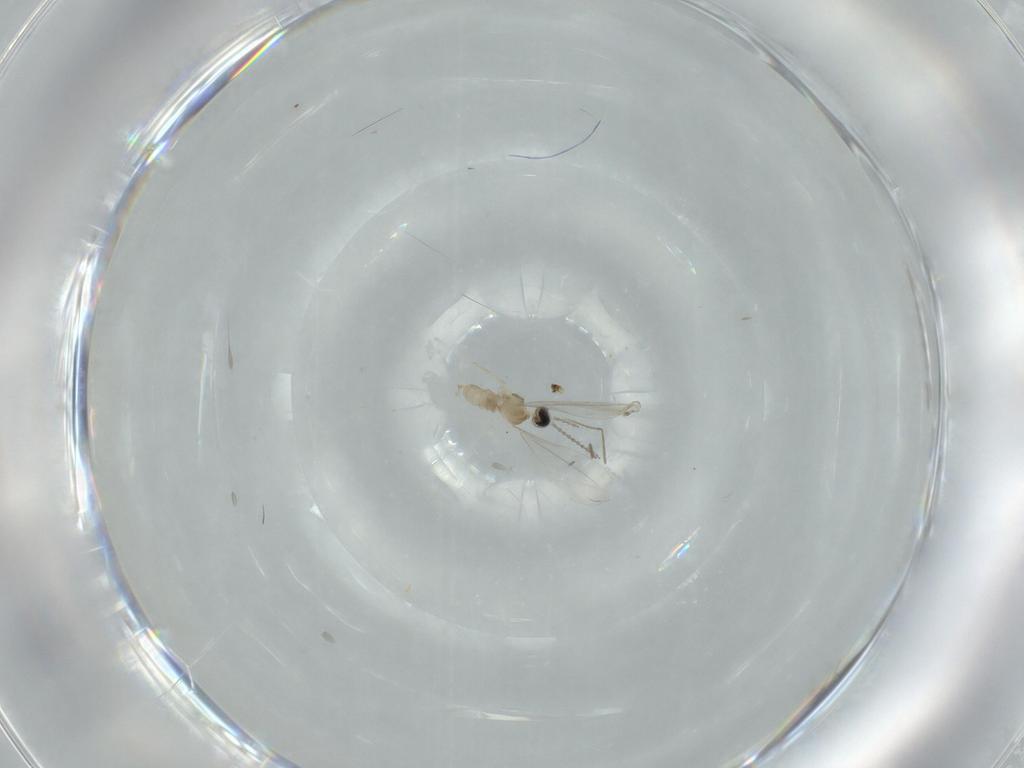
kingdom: Animalia
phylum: Arthropoda
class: Insecta
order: Diptera
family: Cecidomyiidae
